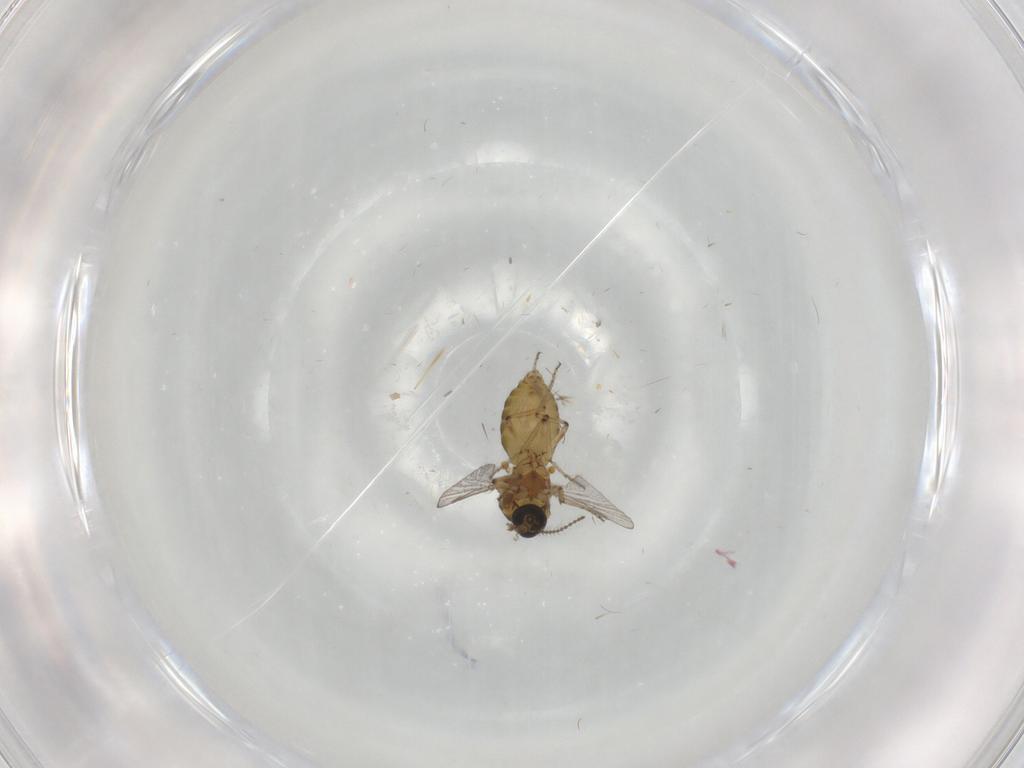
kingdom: Animalia
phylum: Arthropoda
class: Insecta
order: Diptera
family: Ceratopogonidae
